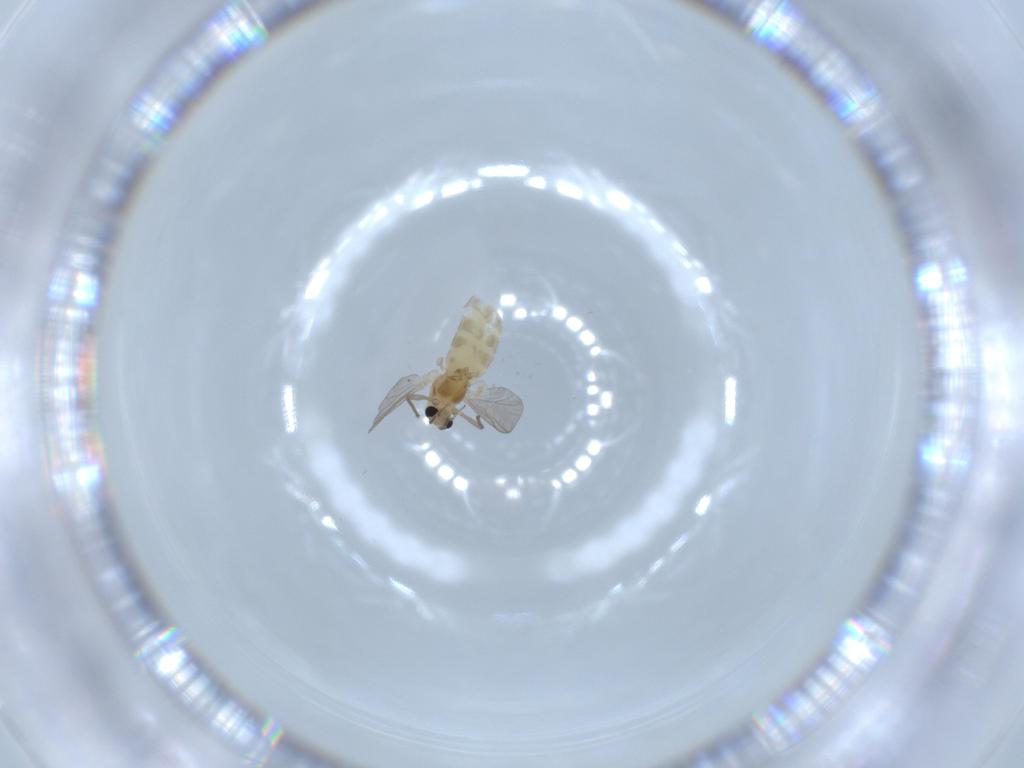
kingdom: Animalia
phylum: Arthropoda
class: Insecta
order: Diptera
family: Chironomidae
